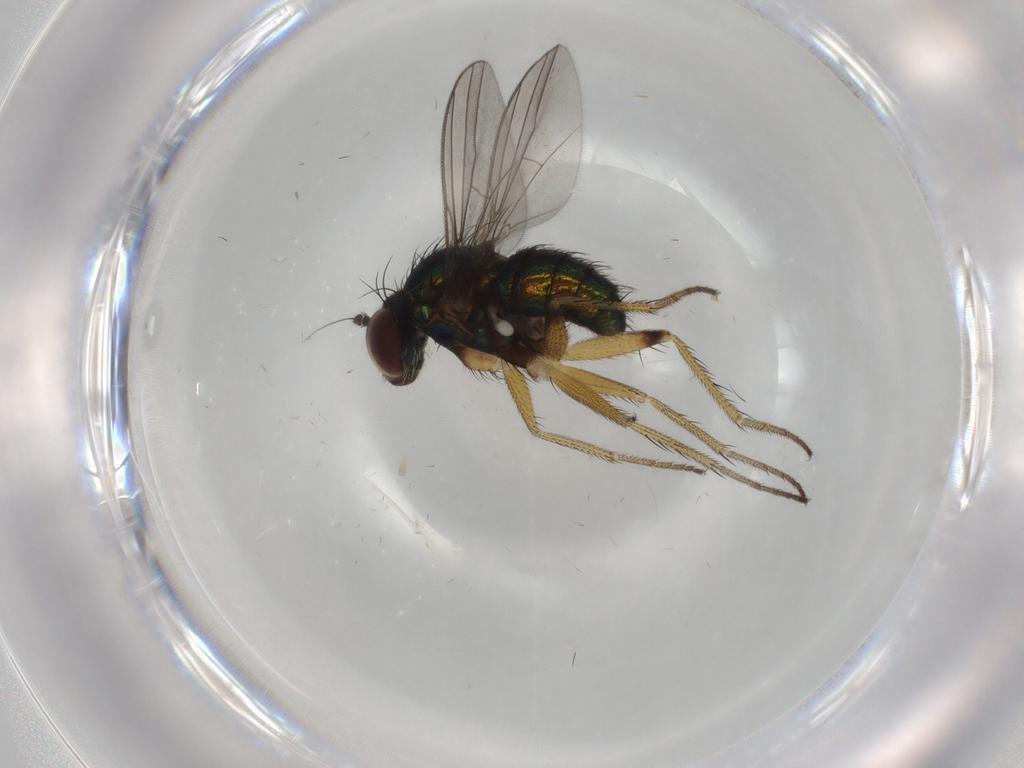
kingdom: Animalia
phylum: Arthropoda
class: Insecta
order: Diptera
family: Dolichopodidae
